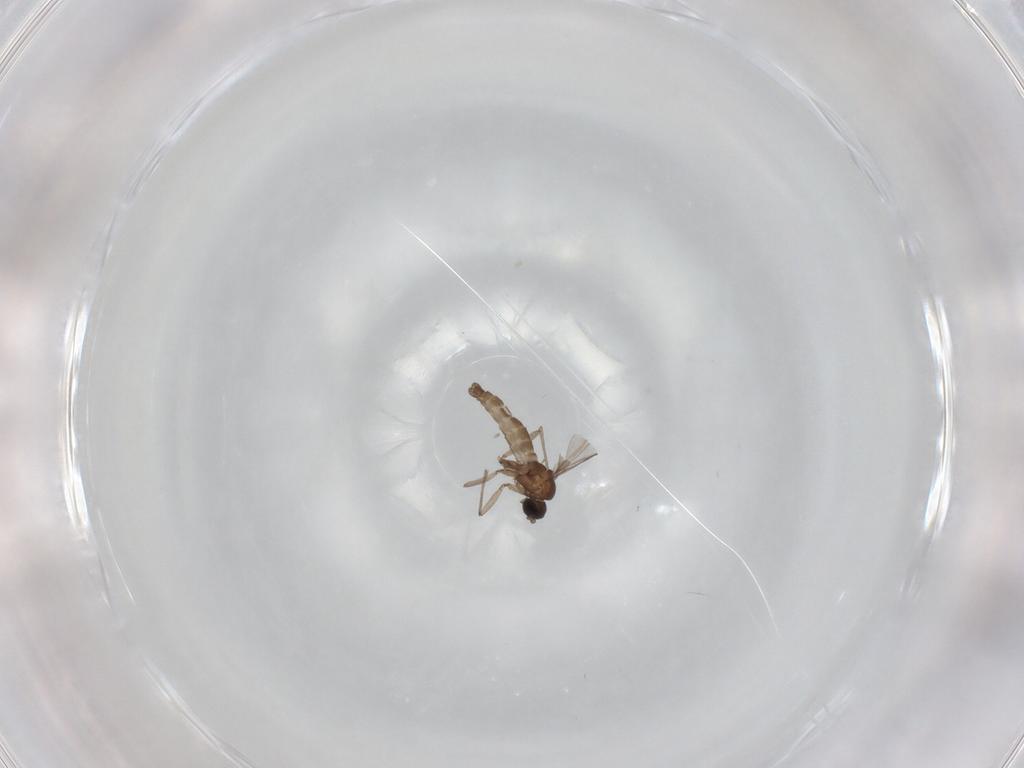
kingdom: Animalia
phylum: Arthropoda
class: Insecta
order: Diptera
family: Sciaridae
